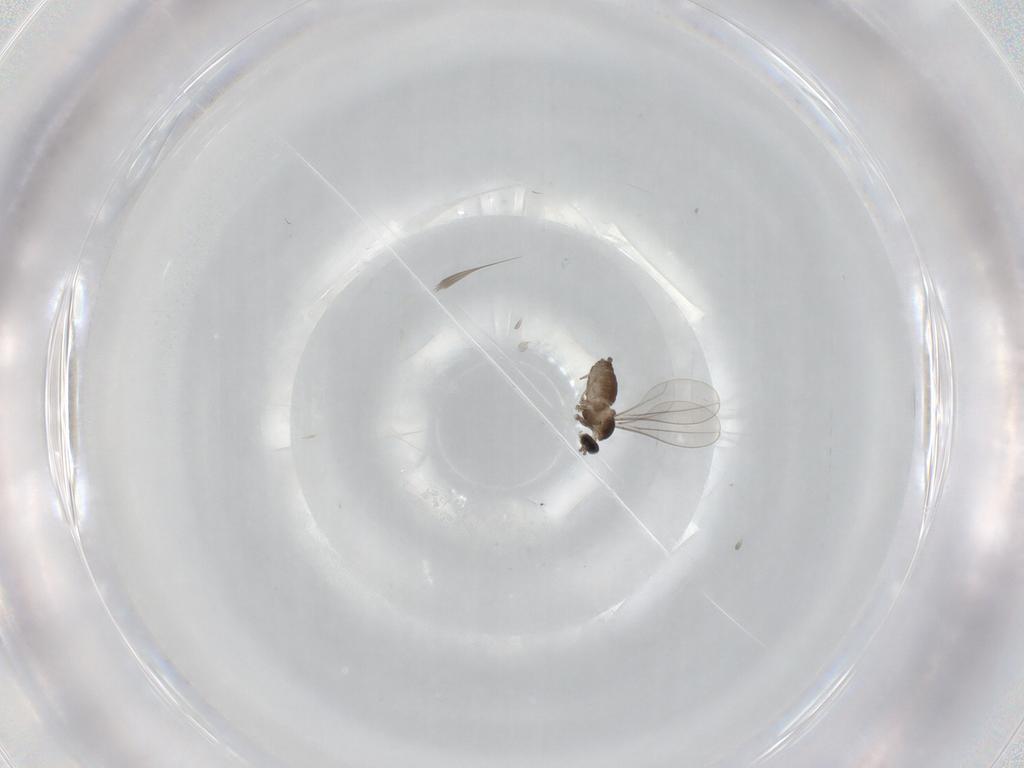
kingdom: Animalia
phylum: Arthropoda
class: Insecta
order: Diptera
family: Cecidomyiidae
